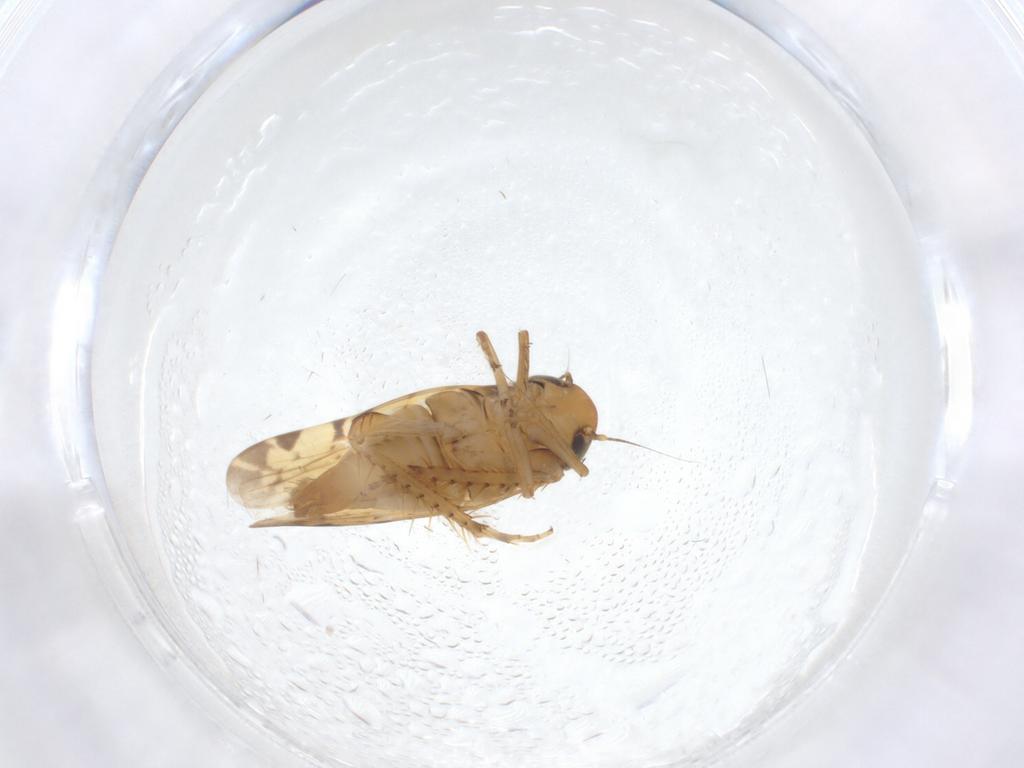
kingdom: Animalia
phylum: Arthropoda
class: Insecta
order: Hemiptera
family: Cicadellidae
